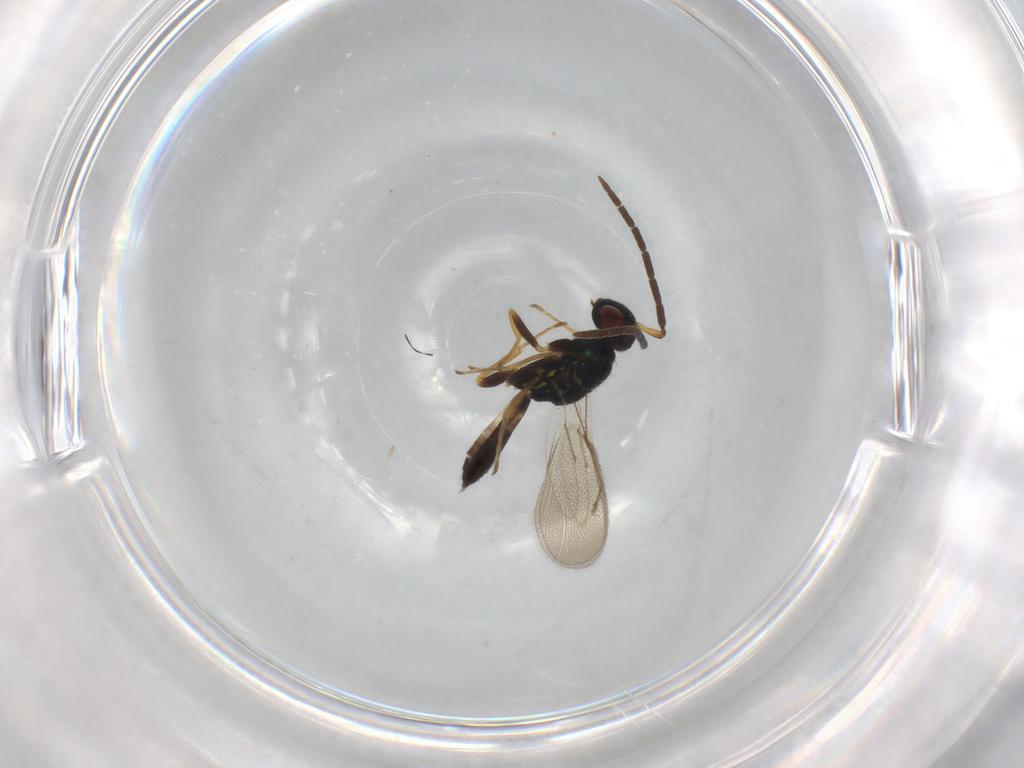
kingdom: Animalia
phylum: Arthropoda
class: Insecta
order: Hymenoptera
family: Pteromalidae
